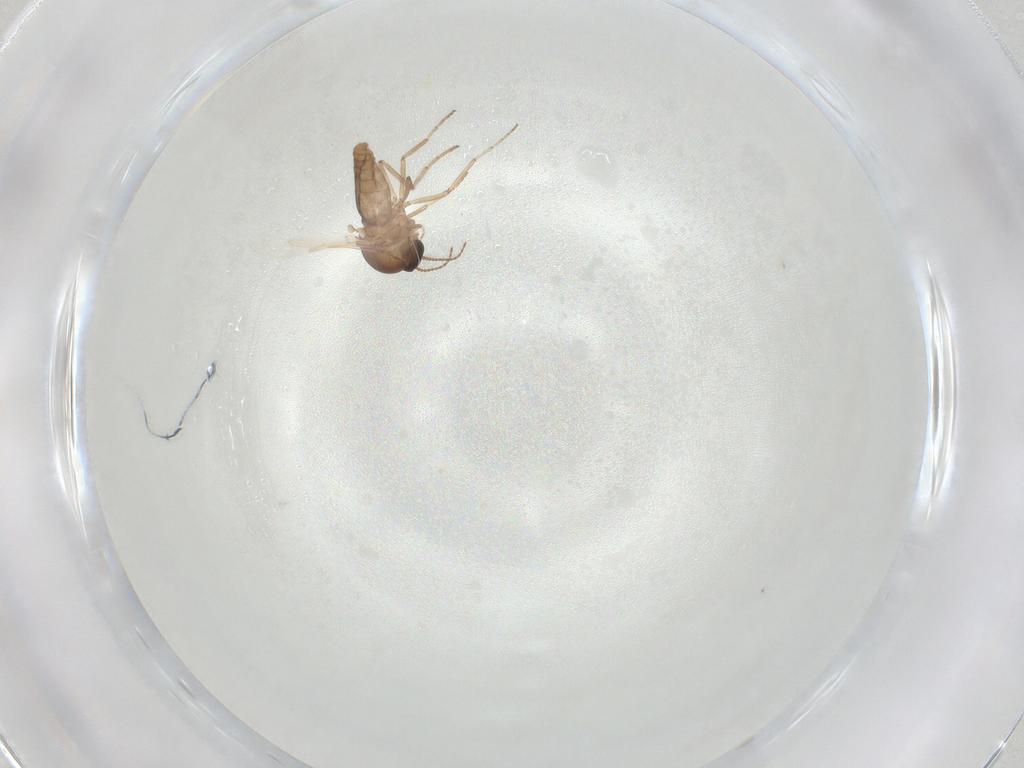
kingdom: Animalia
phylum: Arthropoda
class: Insecta
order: Diptera
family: Ceratopogonidae
